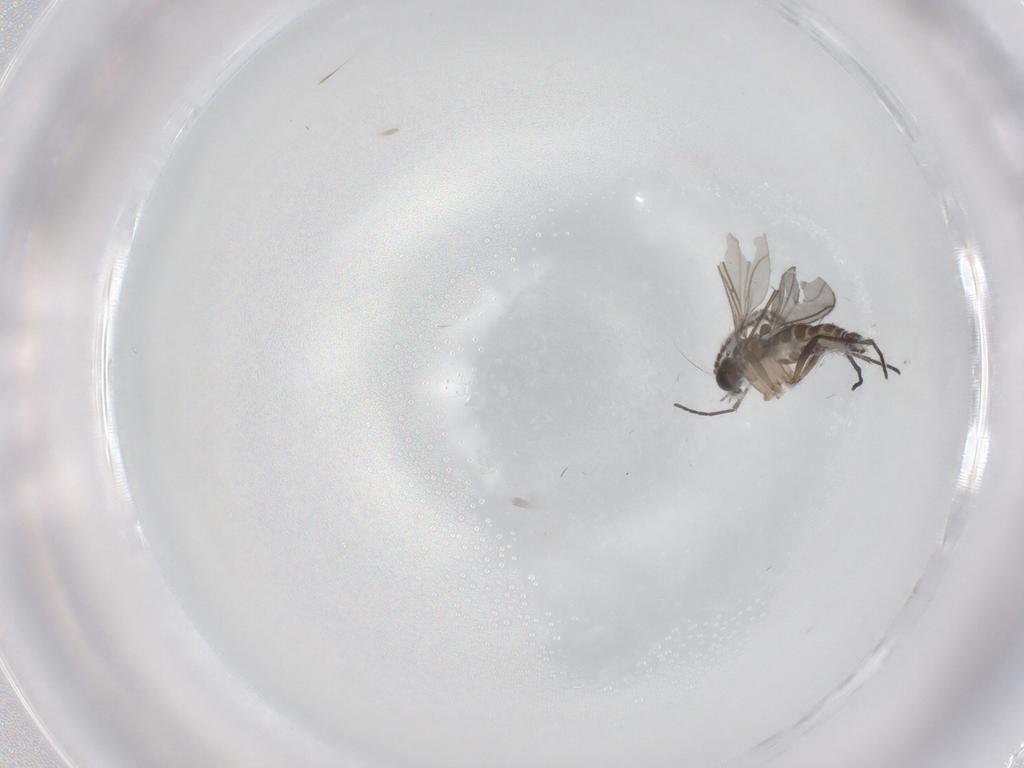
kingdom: Animalia
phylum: Arthropoda
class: Insecta
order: Diptera
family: Sciaridae
